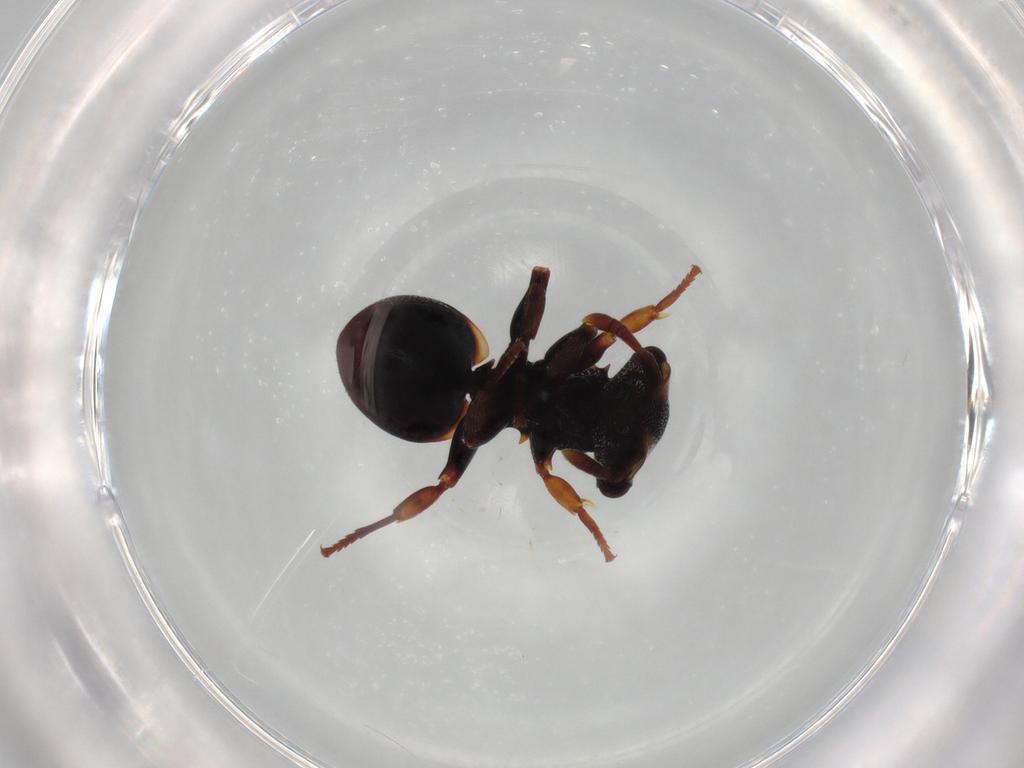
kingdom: Animalia
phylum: Arthropoda
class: Insecta
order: Hymenoptera
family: Formicidae
